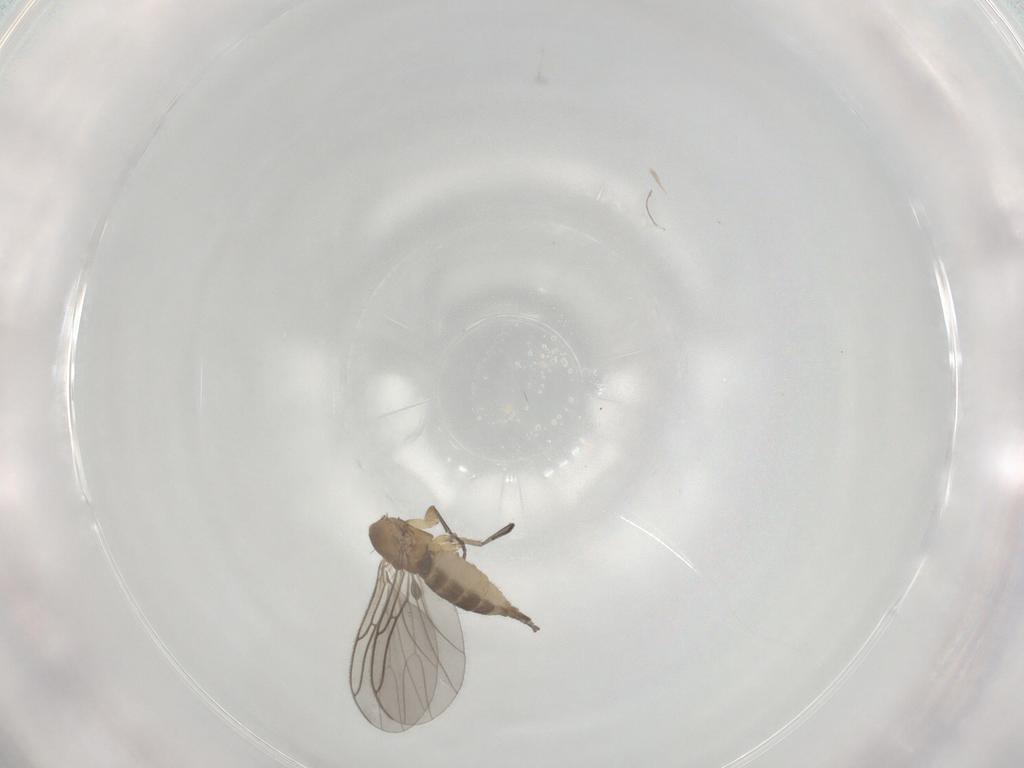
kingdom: Animalia
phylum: Arthropoda
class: Insecta
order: Diptera
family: Sciaridae
